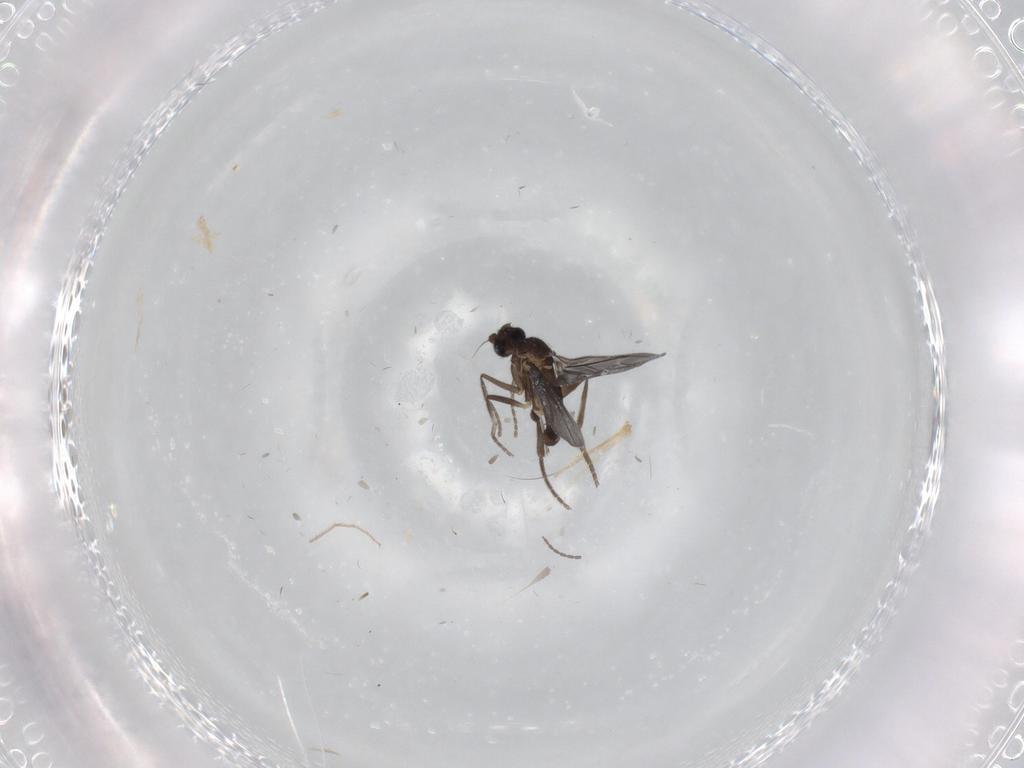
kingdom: Animalia
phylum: Arthropoda
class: Insecta
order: Diptera
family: Phoridae
